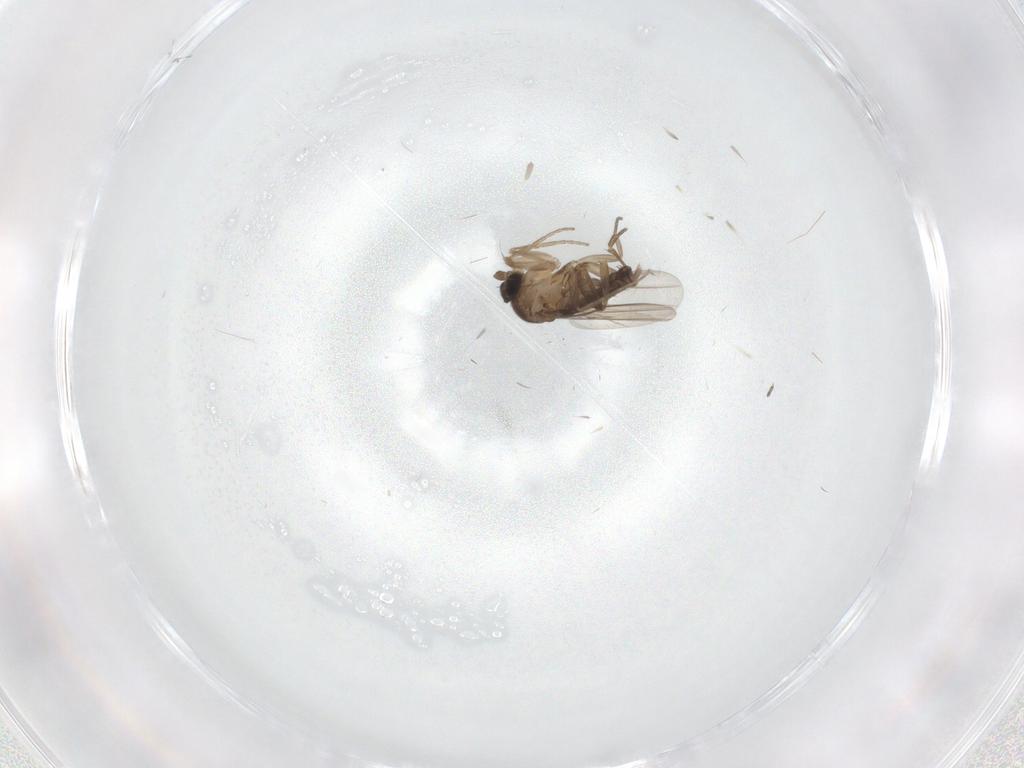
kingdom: Animalia
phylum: Arthropoda
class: Insecta
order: Diptera
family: Phoridae
